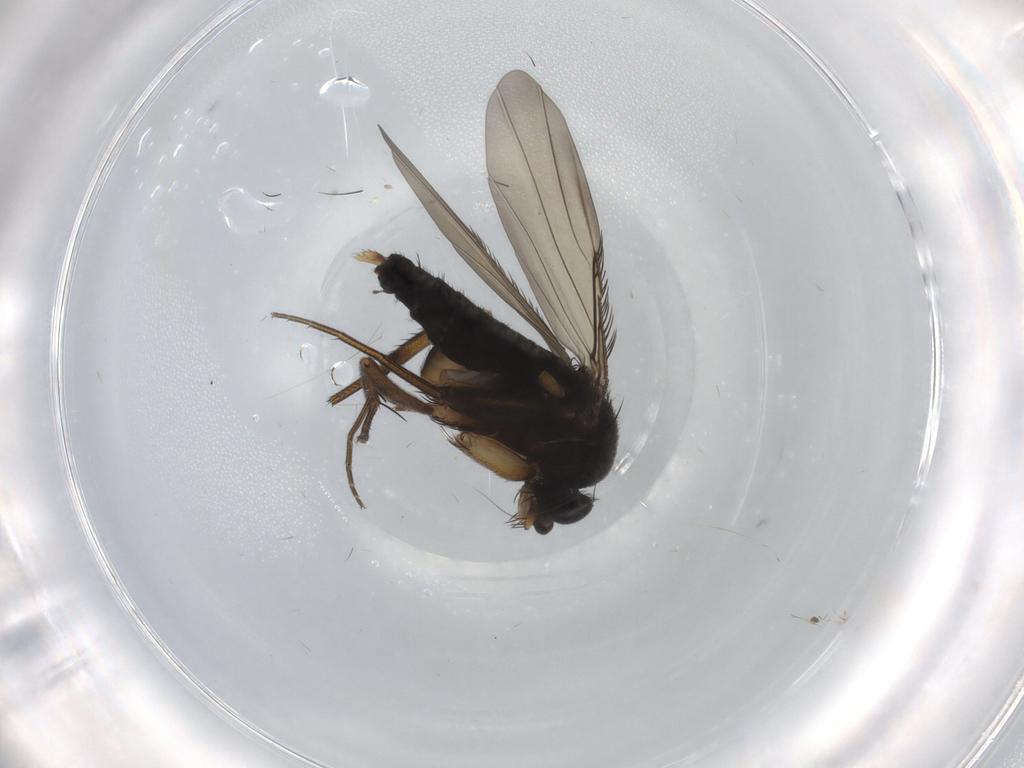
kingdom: Animalia
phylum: Arthropoda
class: Insecta
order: Diptera
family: Phoridae
